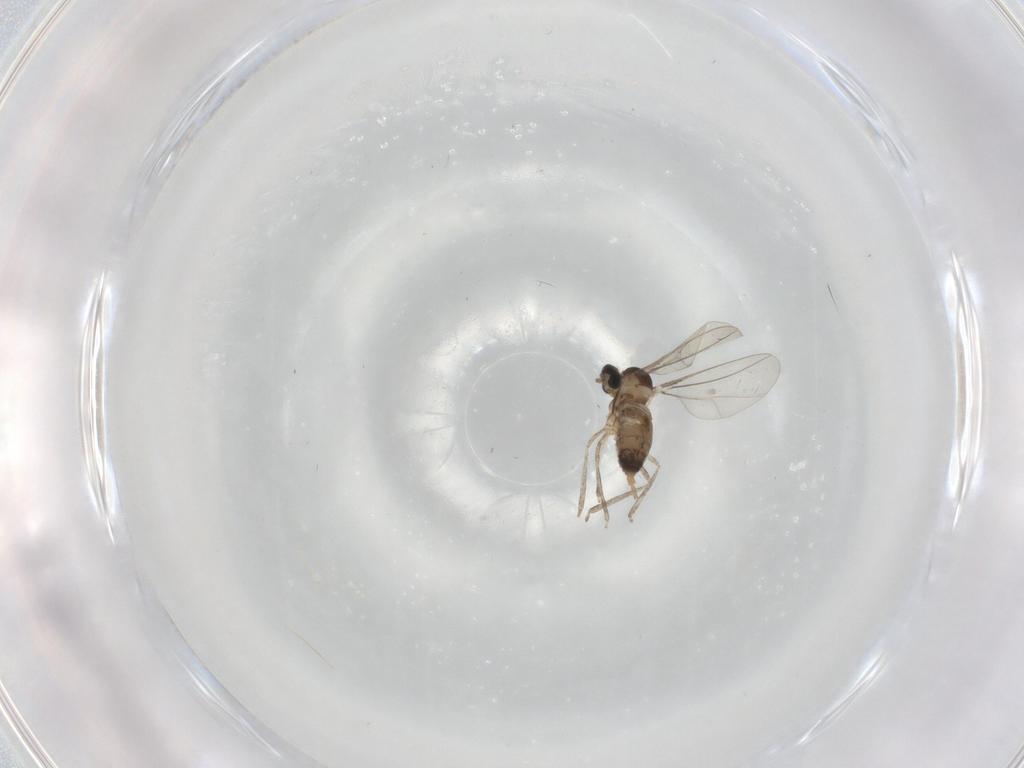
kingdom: Animalia
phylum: Arthropoda
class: Insecta
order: Diptera
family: Cecidomyiidae
